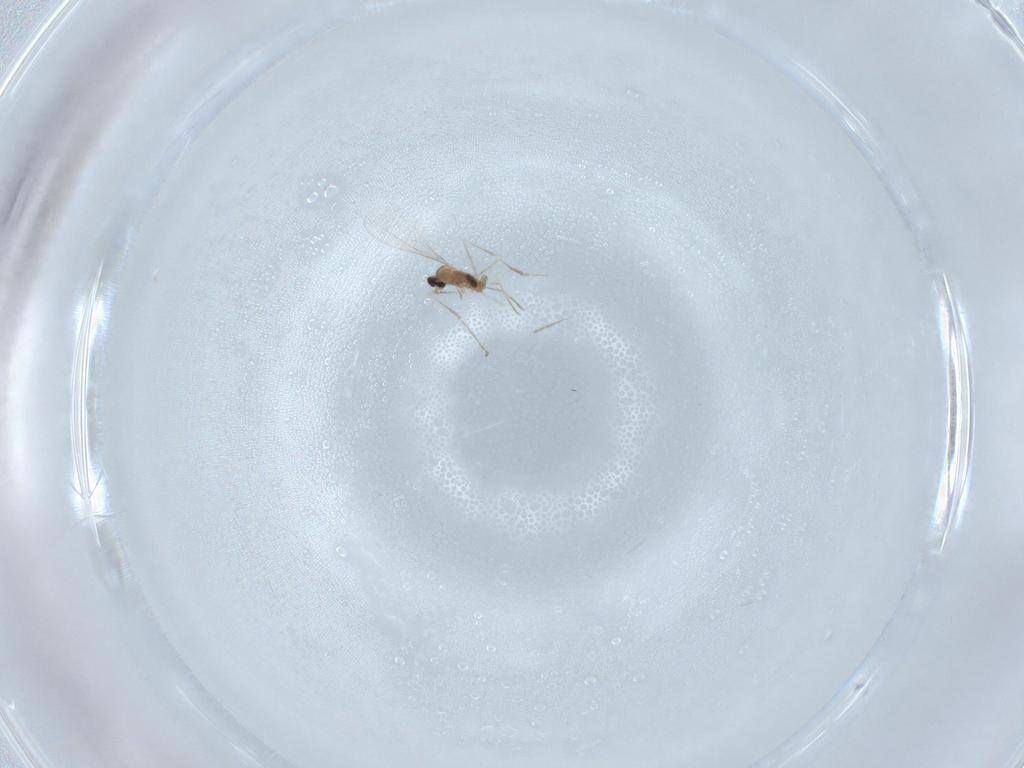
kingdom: Animalia
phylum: Arthropoda
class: Insecta
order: Diptera
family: Cecidomyiidae
